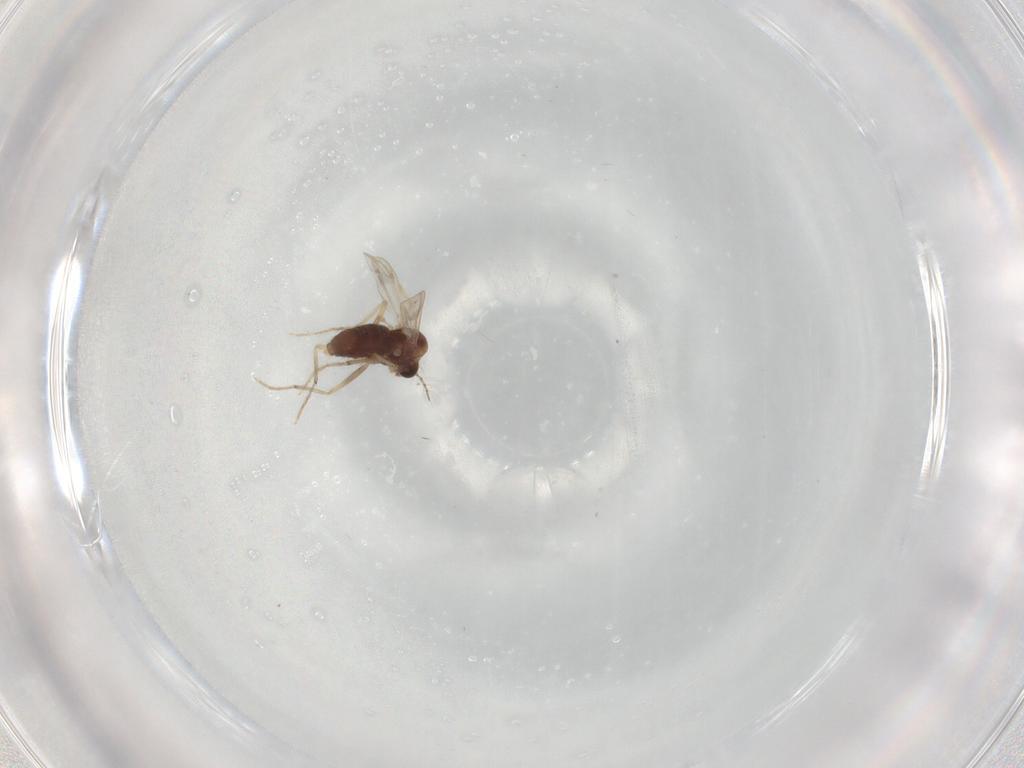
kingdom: Animalia
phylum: Arthropoda
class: Insecta
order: Diptera
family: Chironomidae
